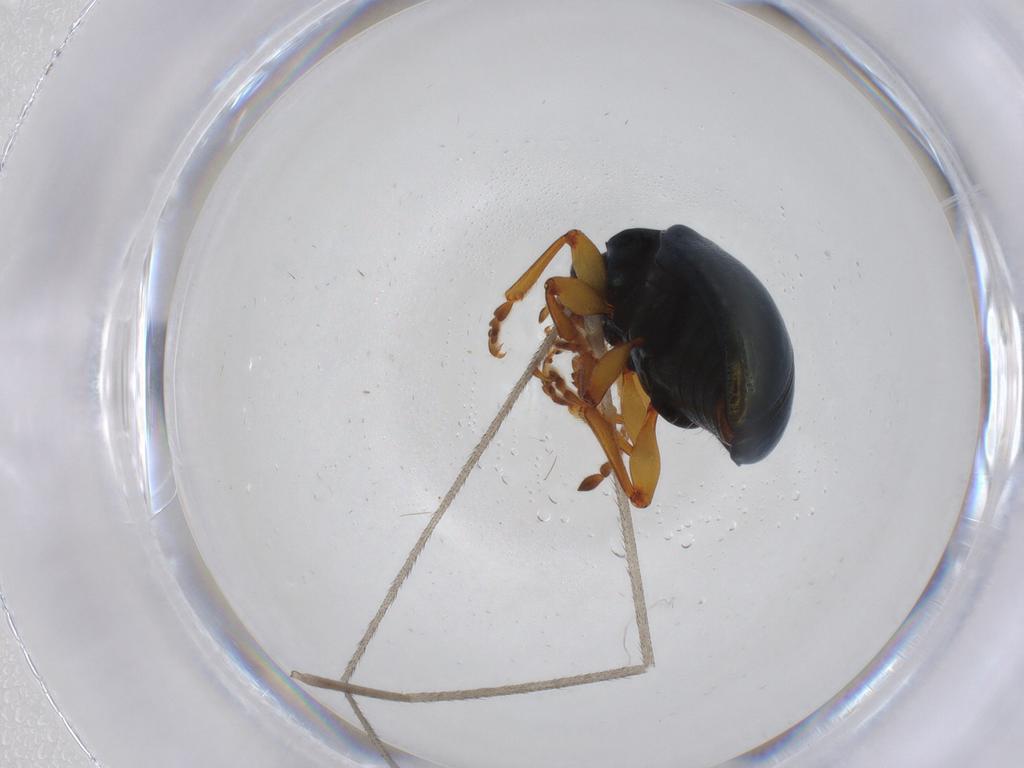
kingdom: Animalia
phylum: Arthropoda
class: Insecta
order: Coleoptera
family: Chrysomelidae
